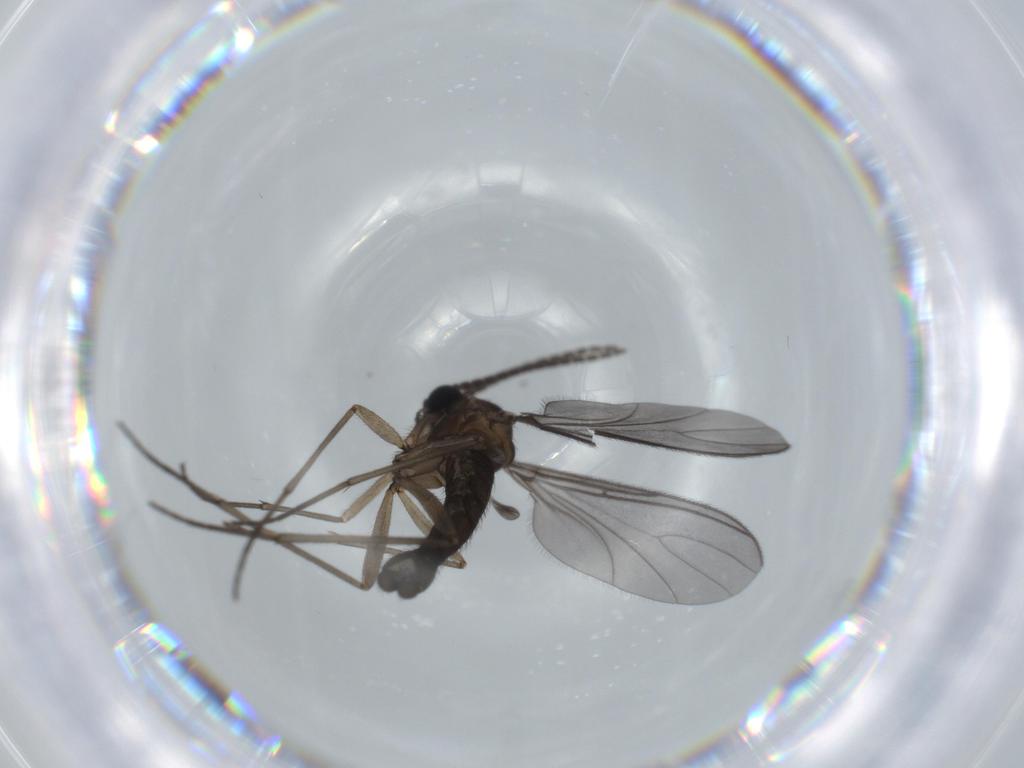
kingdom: Animalia
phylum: Arthropoda
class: Insecta
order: Diptera
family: Sciaridae
